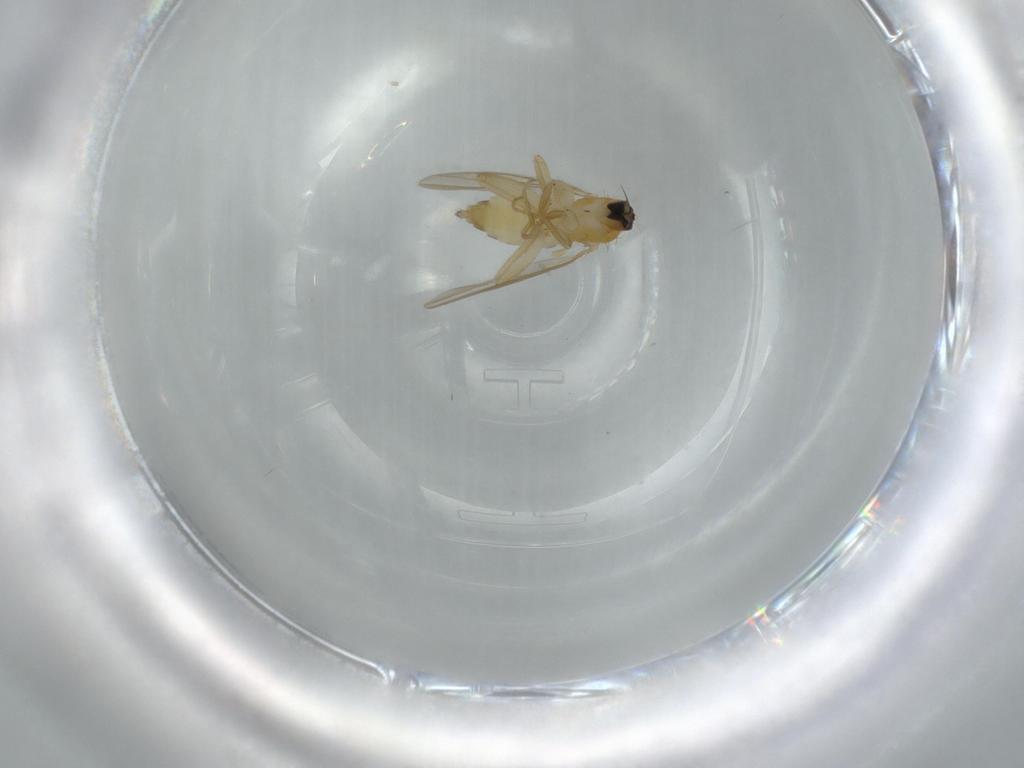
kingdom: Animalia
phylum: Arthropoda
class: Insecta
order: Diptera
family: Hybotidae
